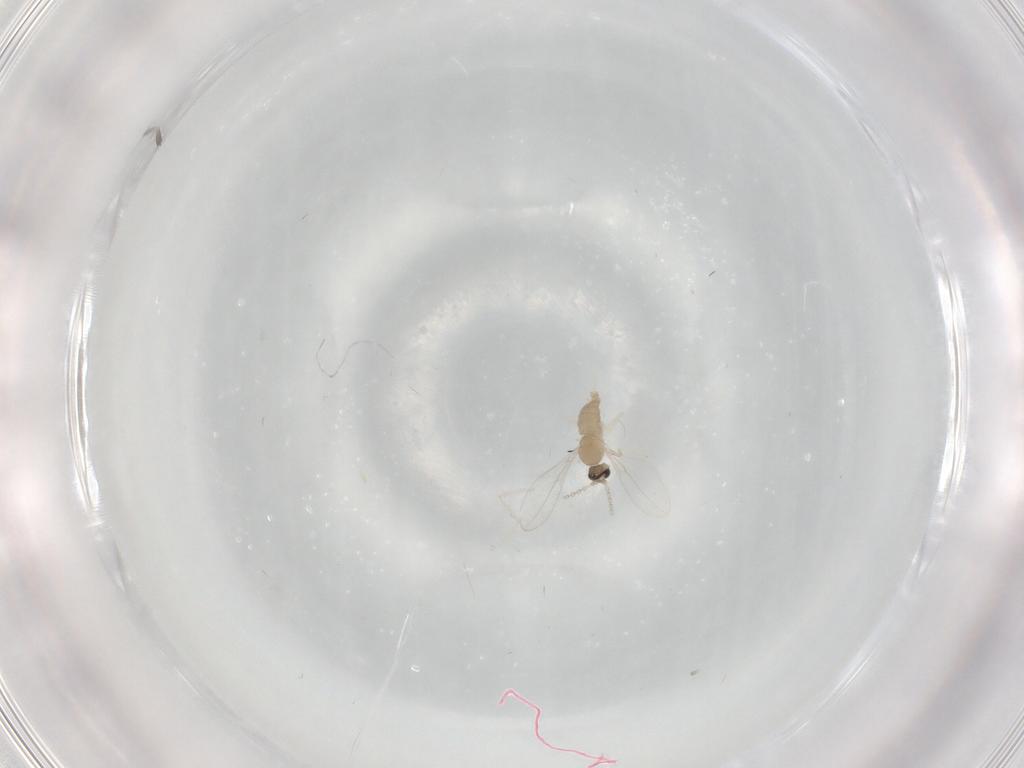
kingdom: Animalia
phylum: Arthropoda
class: Insecta
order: Diptera
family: Cecidomyiidae
